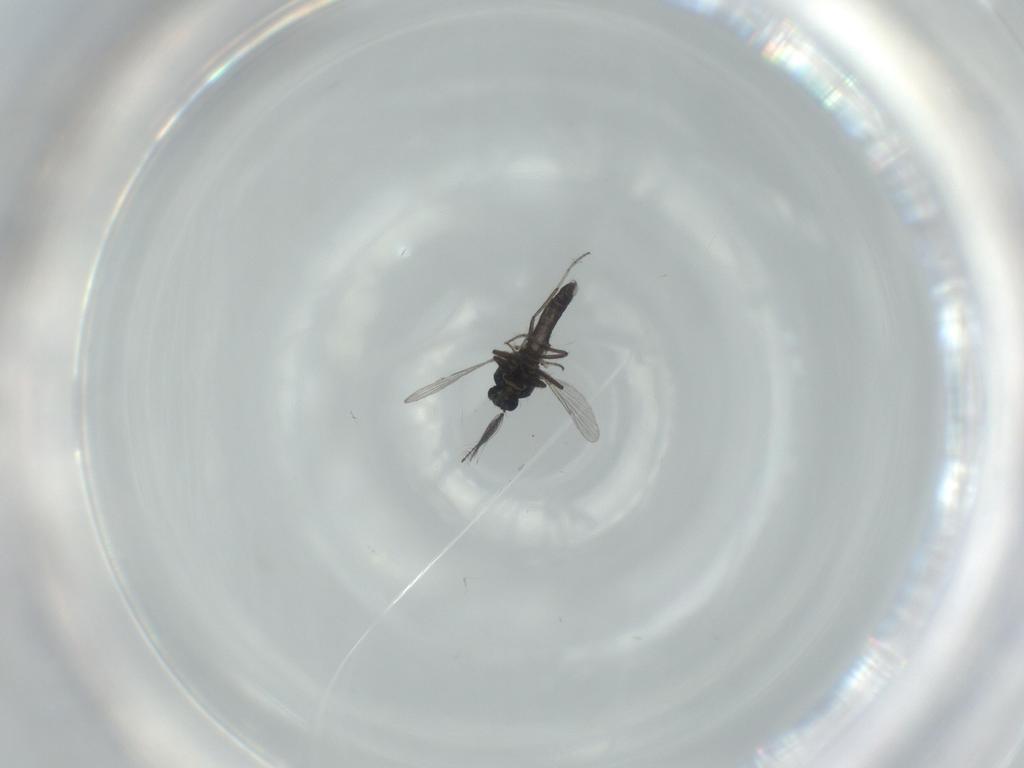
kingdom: Animalia
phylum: Arthropoda
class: Insecta
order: Diptera
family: Ceratopogonidae
